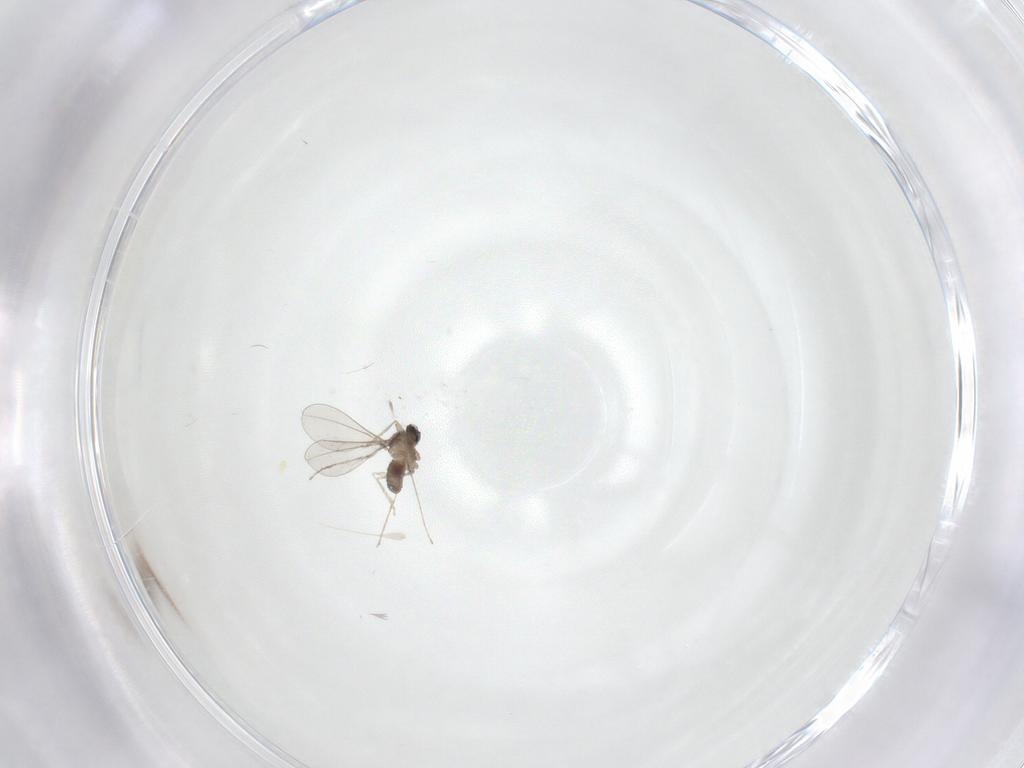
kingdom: Animalia
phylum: Arthropoda
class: Insecta
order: Diptera
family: Cecidomyiidae
